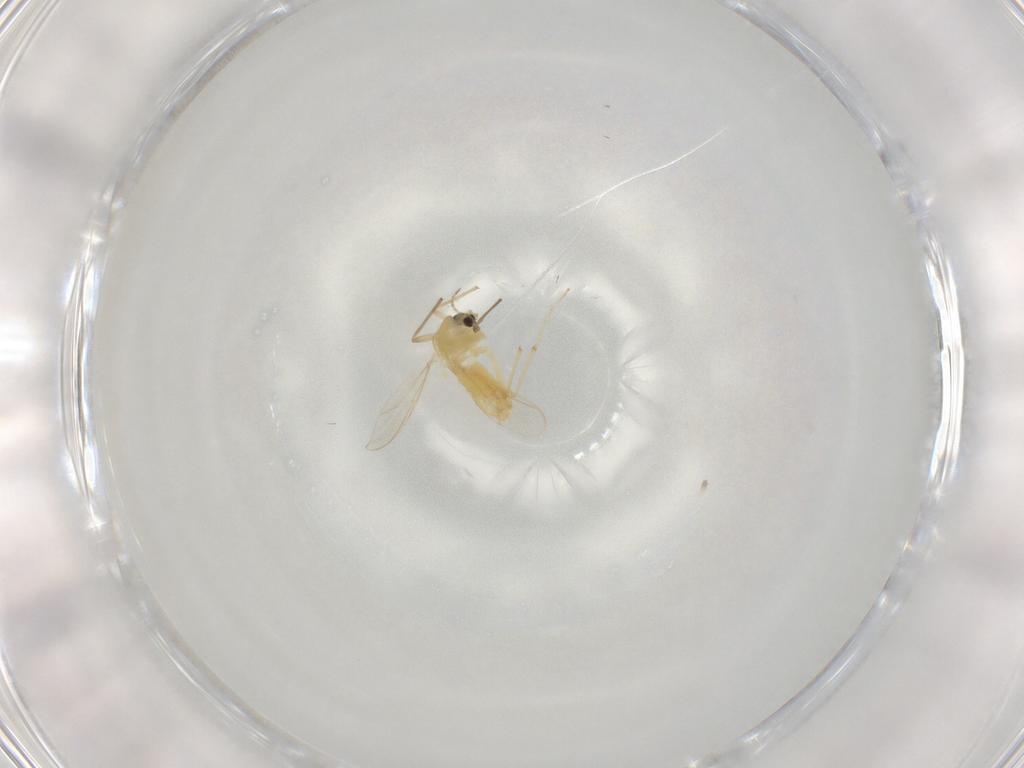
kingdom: Animalia
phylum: Arthropoda
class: Insecta
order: Diptera
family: Chironomidae
